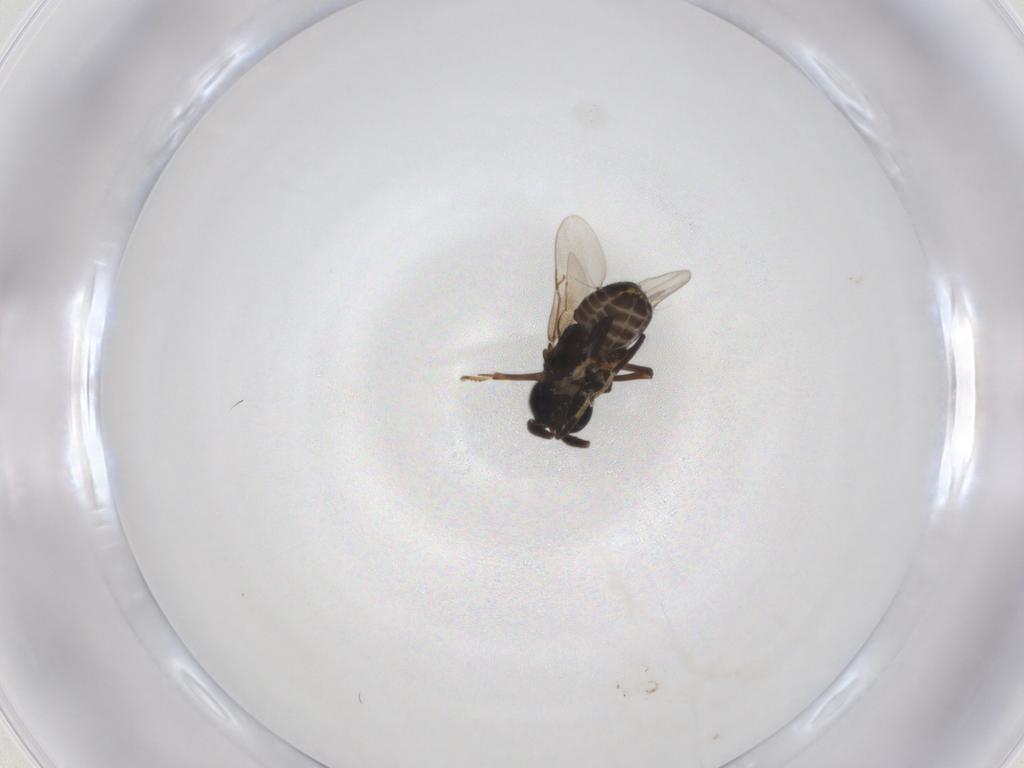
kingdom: Animalia
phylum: Arthropoda
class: Insecta
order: Hymenoptera
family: Encyrtidae
